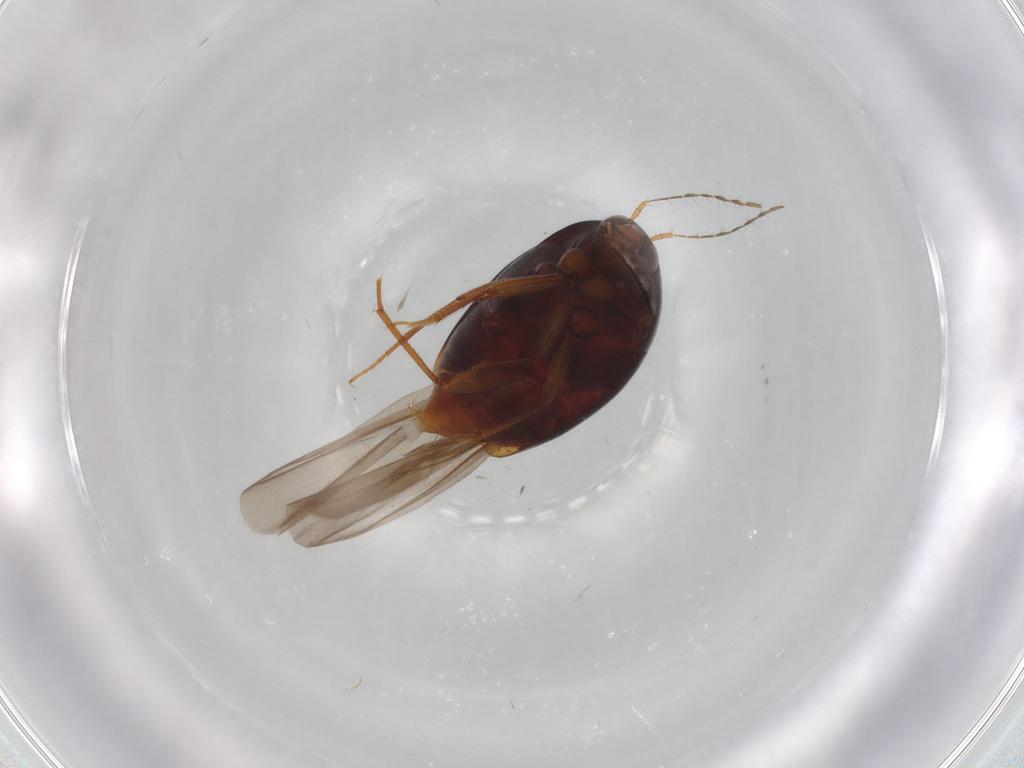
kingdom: Animalia
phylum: Arthropoda
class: Insecta
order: Coleoptera
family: Staphylinidae
